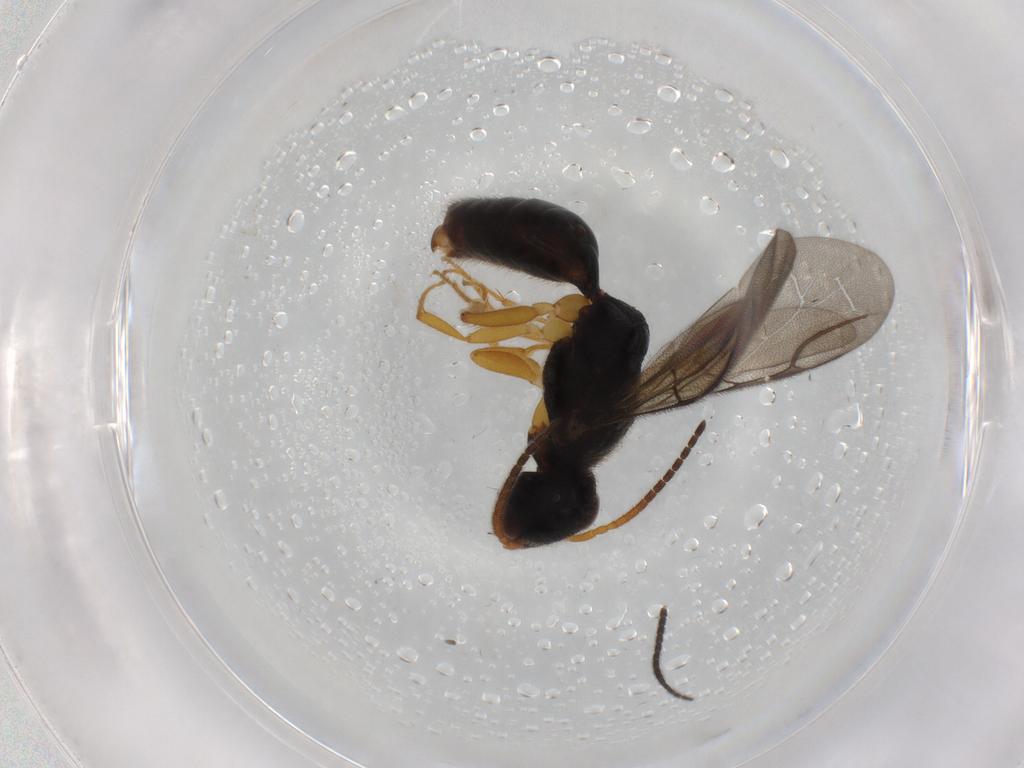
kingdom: Animalia
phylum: Arthropoda
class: Insecta
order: Hymenoptera
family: Bethylidae
